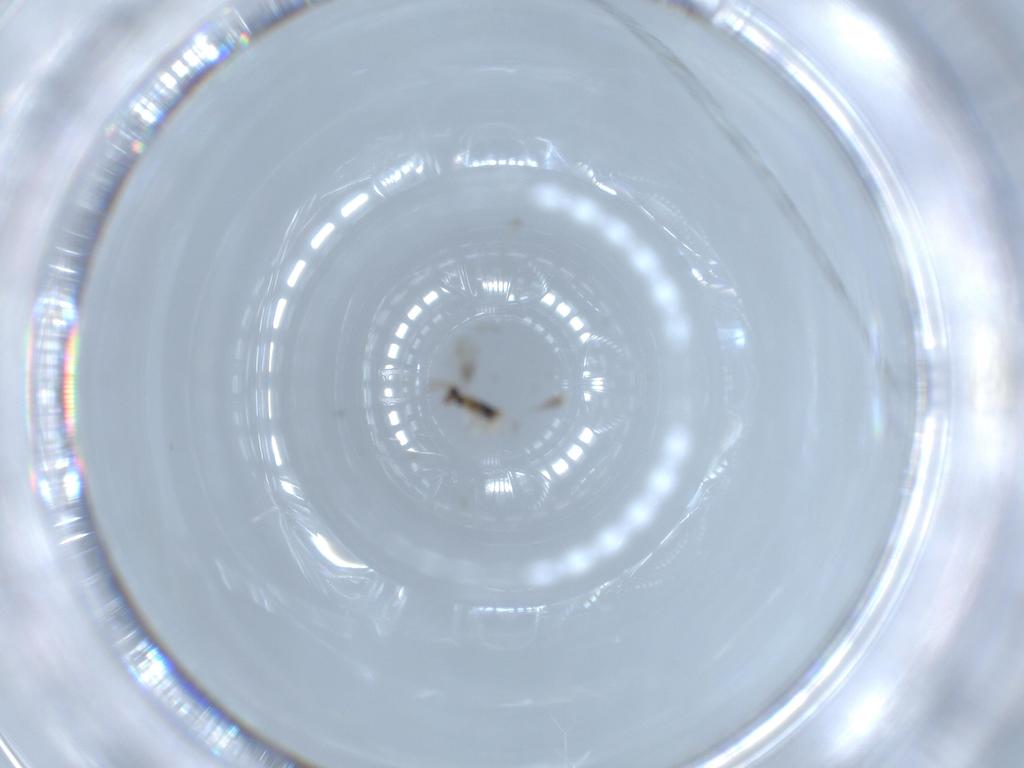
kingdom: Animalia
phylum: Arthropoda
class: Insecta
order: Hymenoptera
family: Aphelinidae
